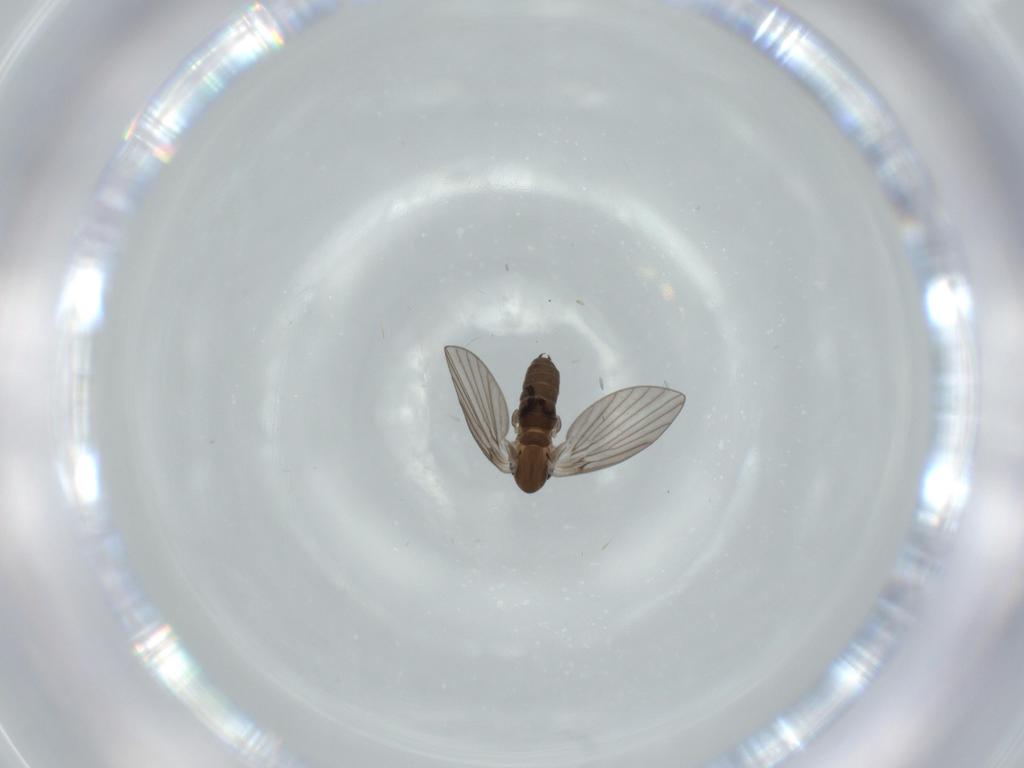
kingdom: Animalia
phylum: Arthropoda
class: Insecta
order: Diptera
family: Psychodidae
